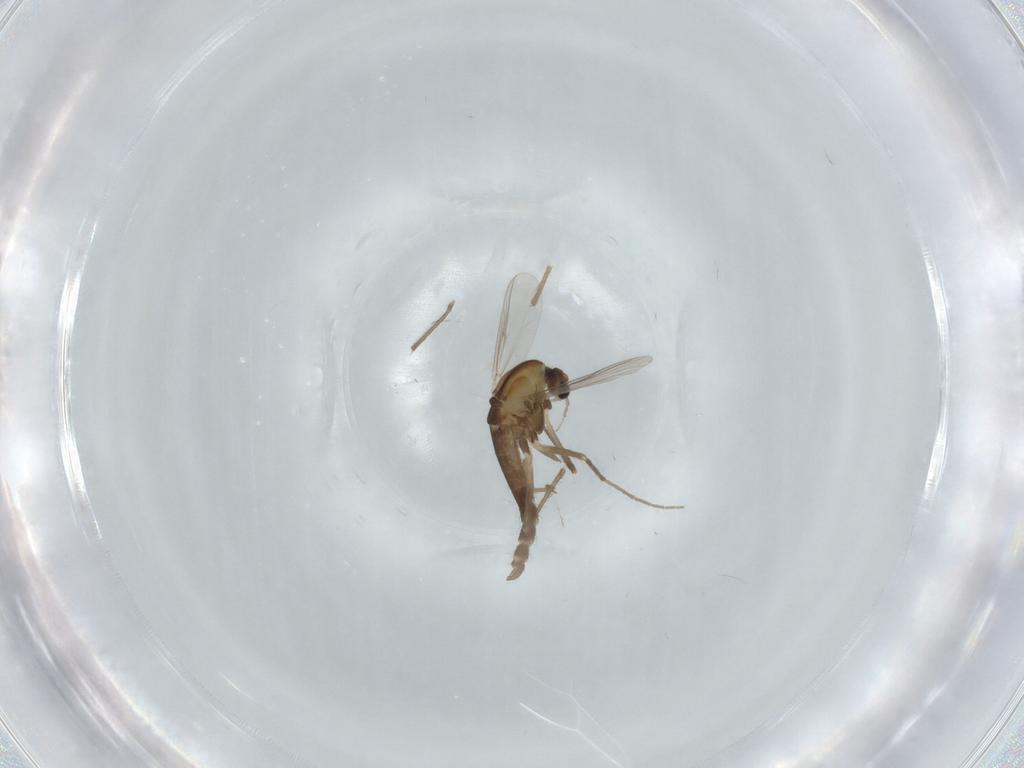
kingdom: Animalia
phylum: Arthropoda
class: Insecta
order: Diptera
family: Chironomidae
